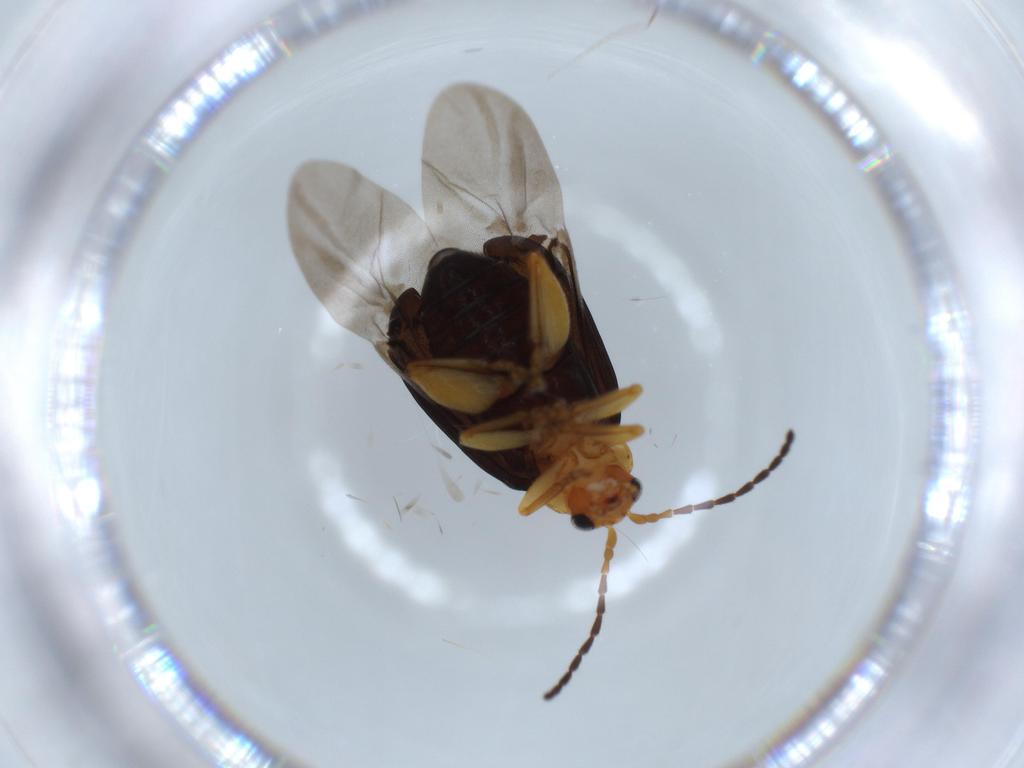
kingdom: Animalia
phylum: Arthropoda
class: Insecta
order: Coleoptera
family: Chrysomelidae
